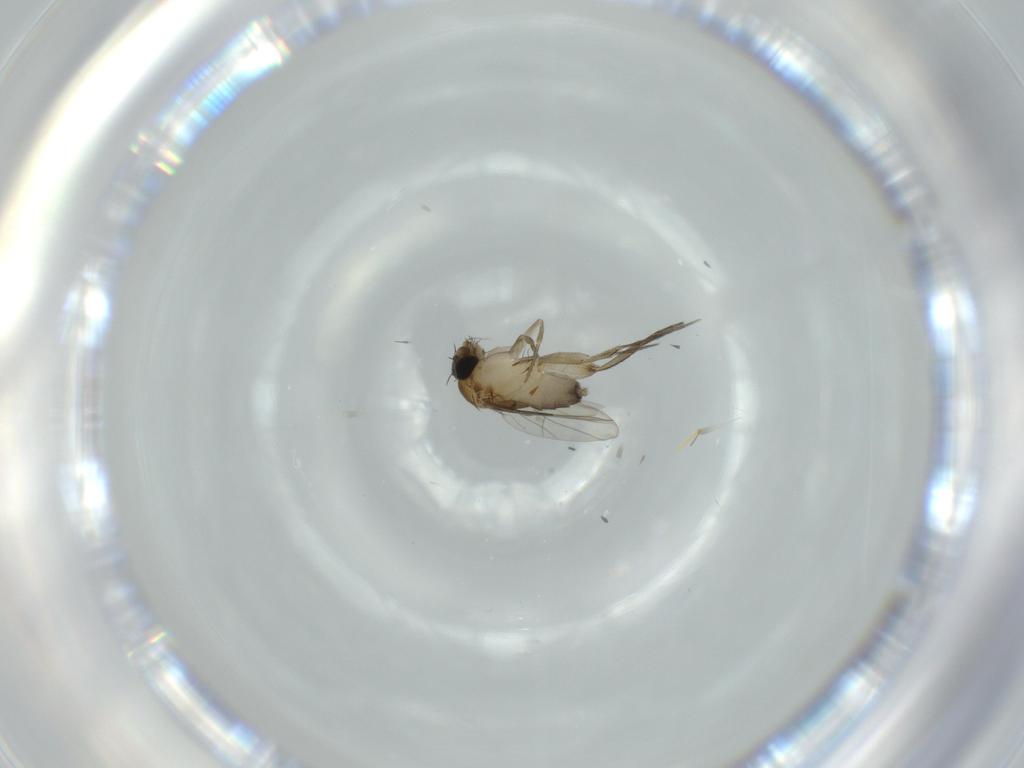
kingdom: Animalia
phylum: Arthropoda
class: Insecta
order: Diptera
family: Phoridae
